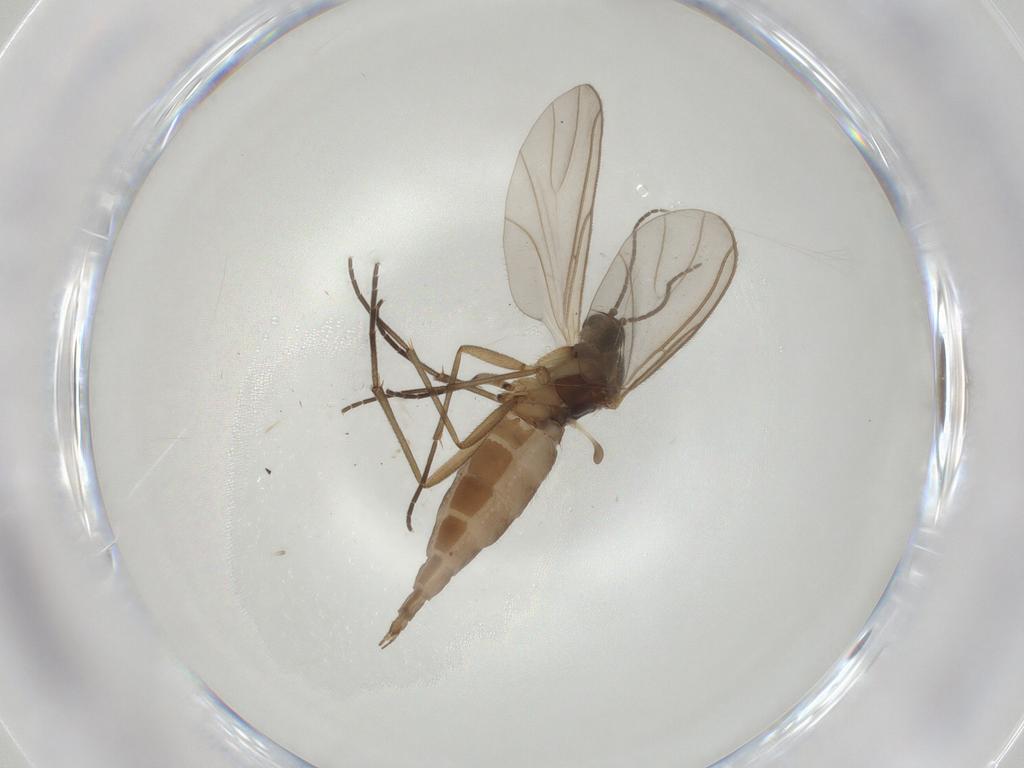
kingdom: Animalia
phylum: Arthropoda
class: Insecta
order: Diptera
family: Sciaridae
